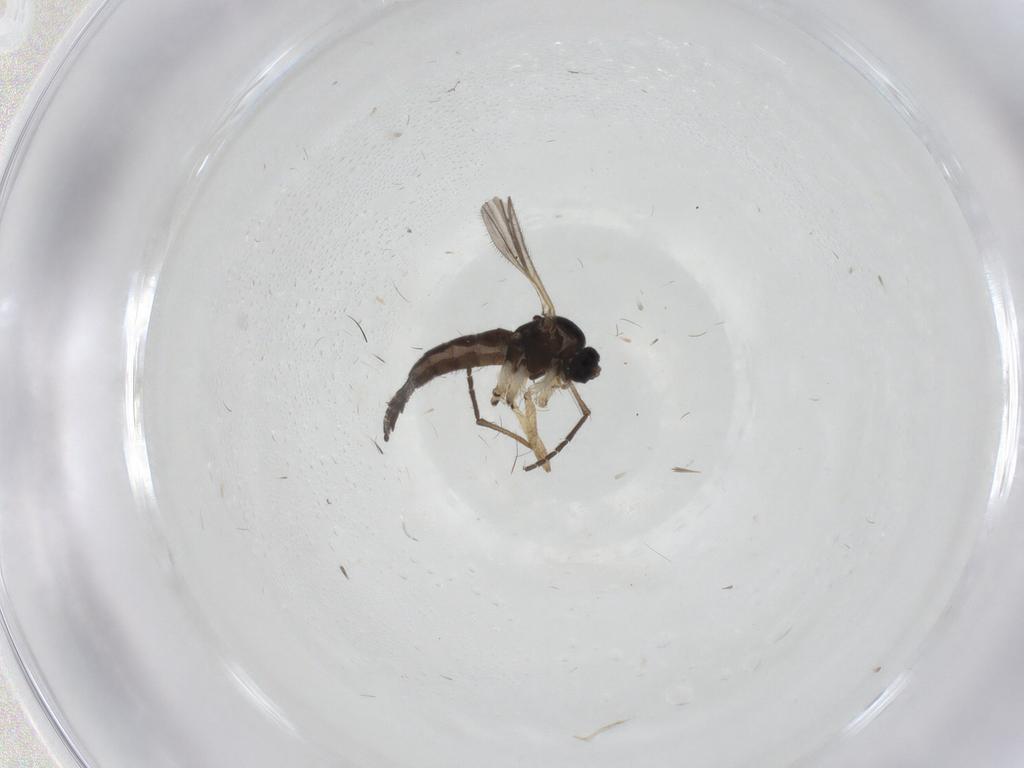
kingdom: Animalia
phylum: Arthropoda
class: Insecta
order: Diptera
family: Sciaridae
